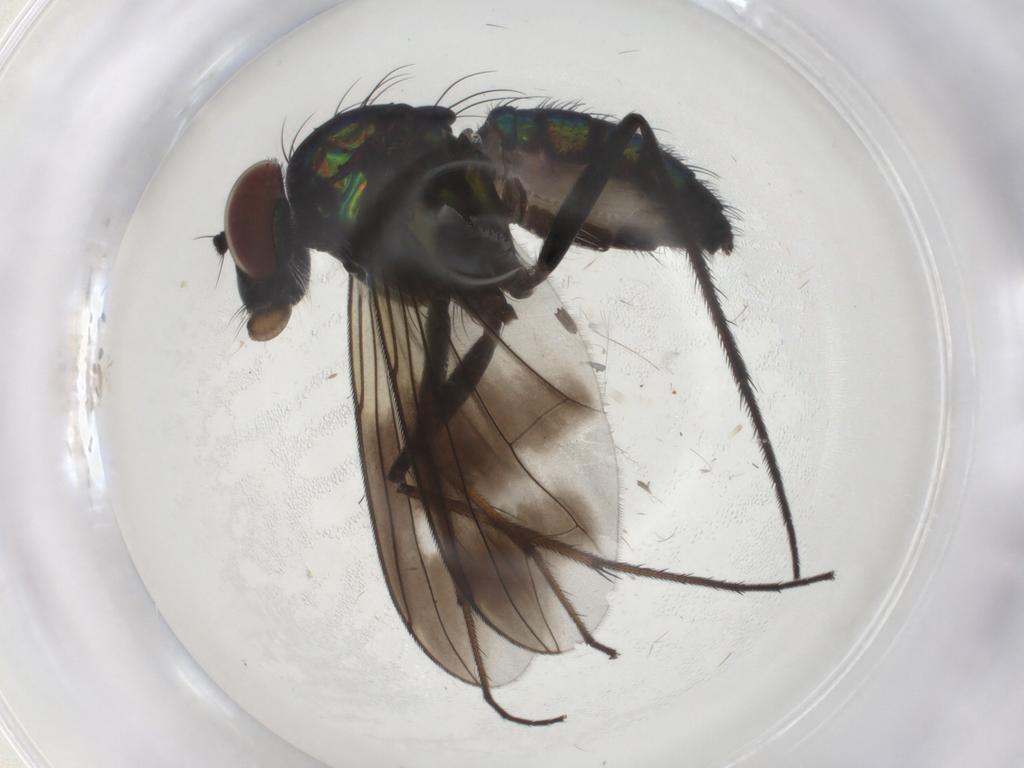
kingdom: Animalia
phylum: Arthropoda
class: Insecta
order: Diptera
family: Dolichopodidae
